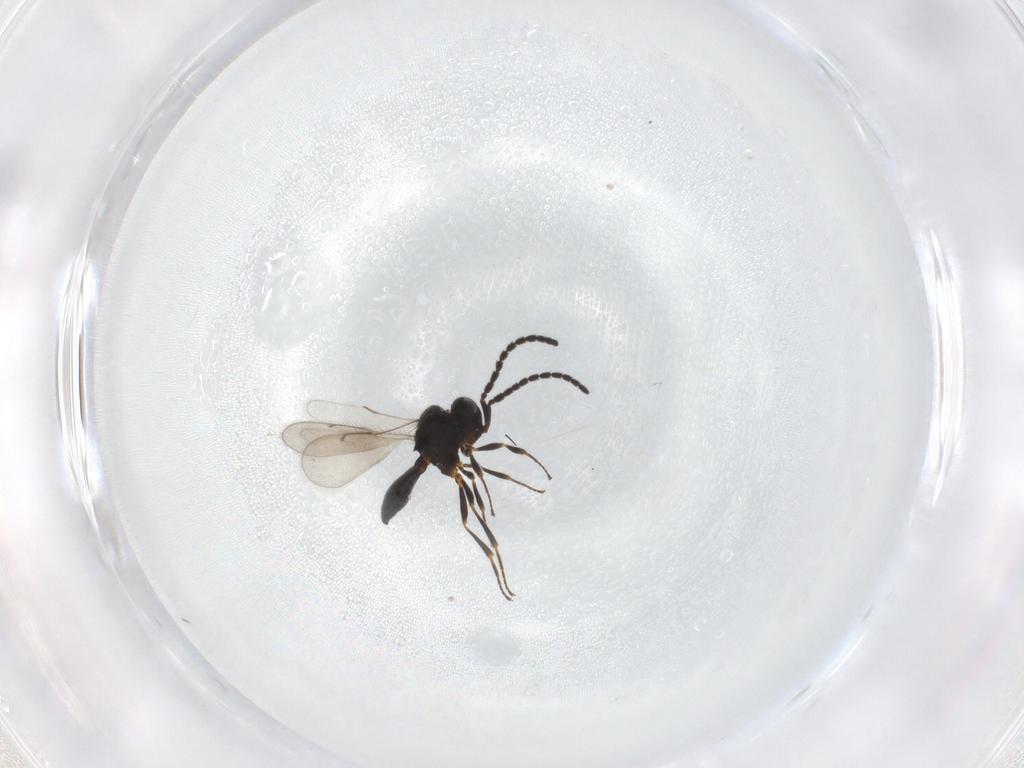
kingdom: Animalia
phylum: Arthropoda
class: Insecta
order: Hymenoptera
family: Scelionidae
